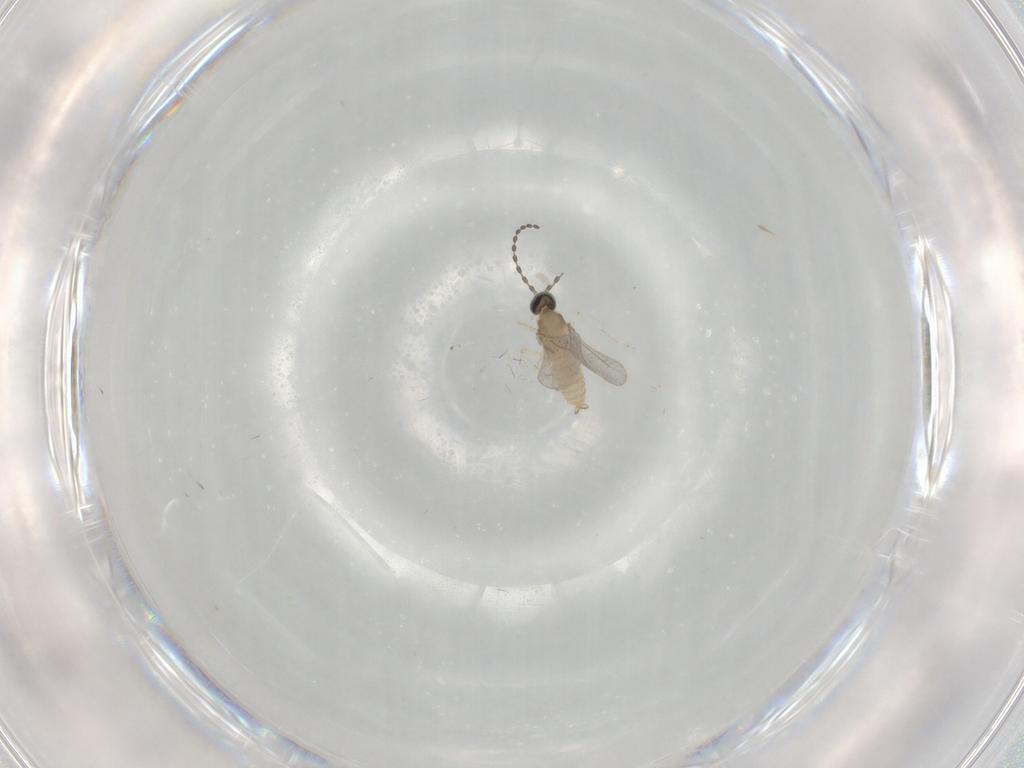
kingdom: Animalia
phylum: Arthropoda
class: Insecta
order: Diptera
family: Cecidomyiidae
